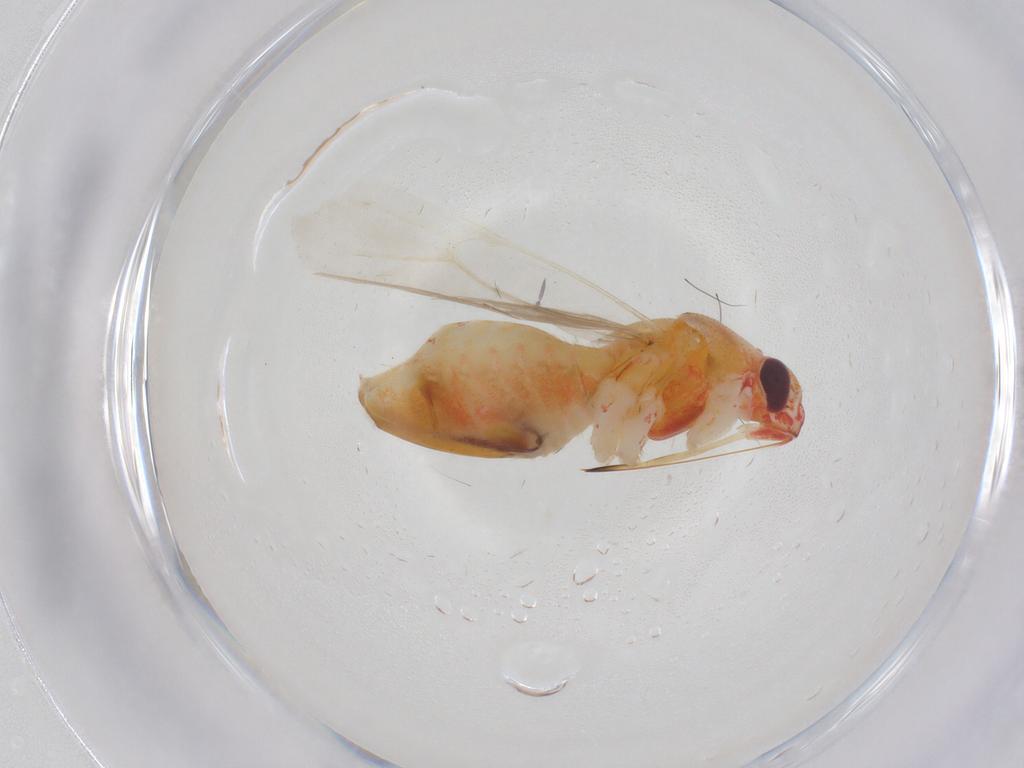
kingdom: Animalia
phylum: Arthropoda
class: Insecta
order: Hemiptera
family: Miridae
